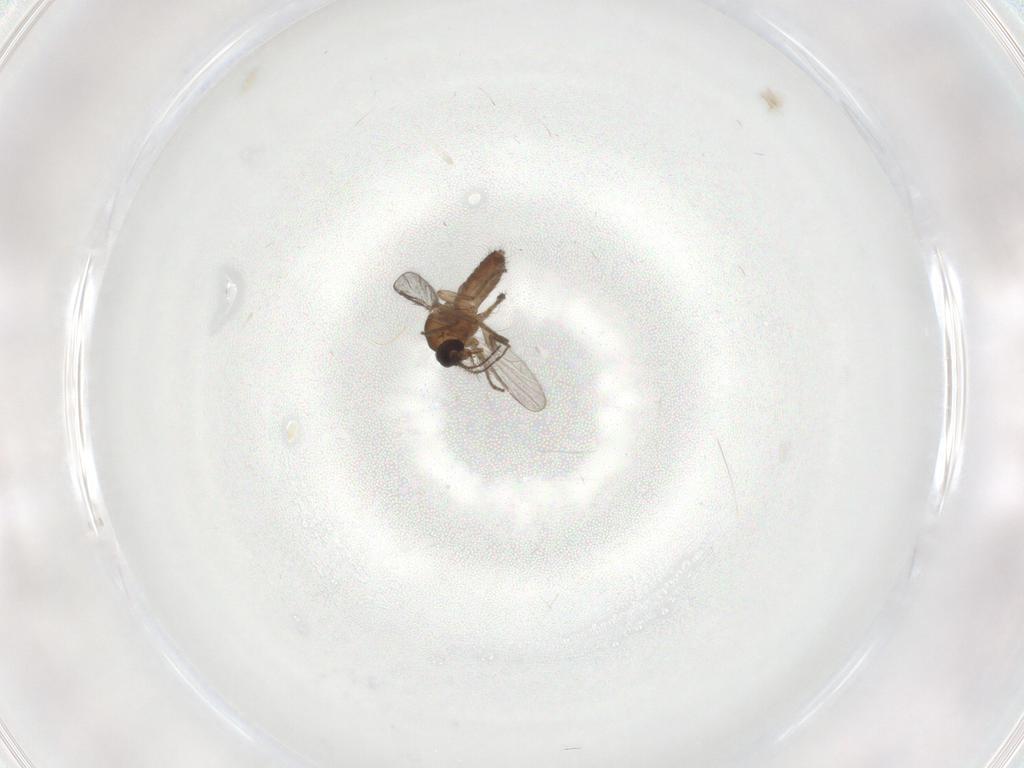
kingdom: Animalia
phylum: Arthropoda
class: Insecta
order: Diptera
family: Ceratopogonidae
